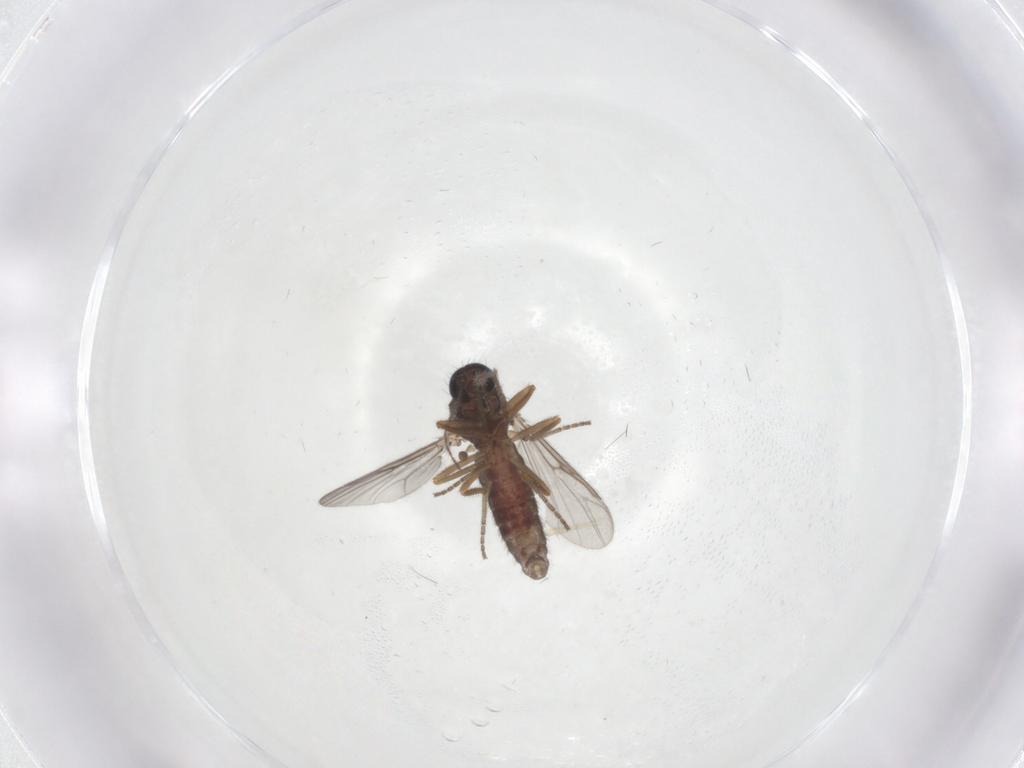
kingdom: Animalia
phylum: Arthropoda
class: Insecta
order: Diptera
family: Ceratopogonidae
